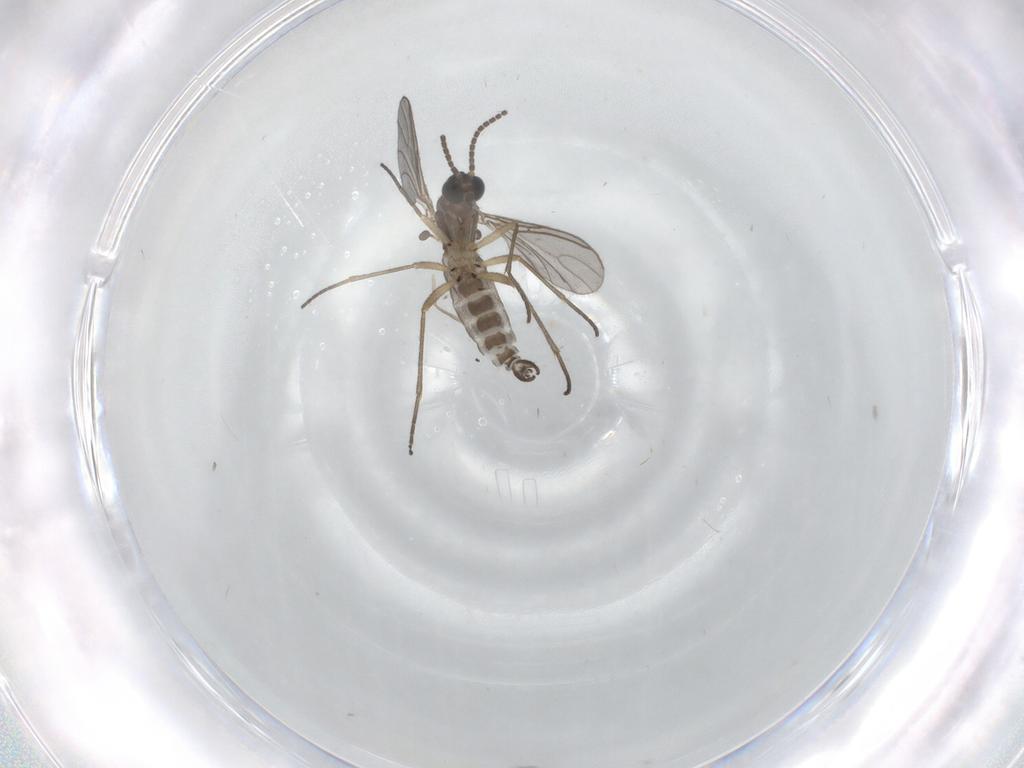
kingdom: Animalia
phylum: Arthropoda
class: Insecta
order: Diptera
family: Sciaridae
